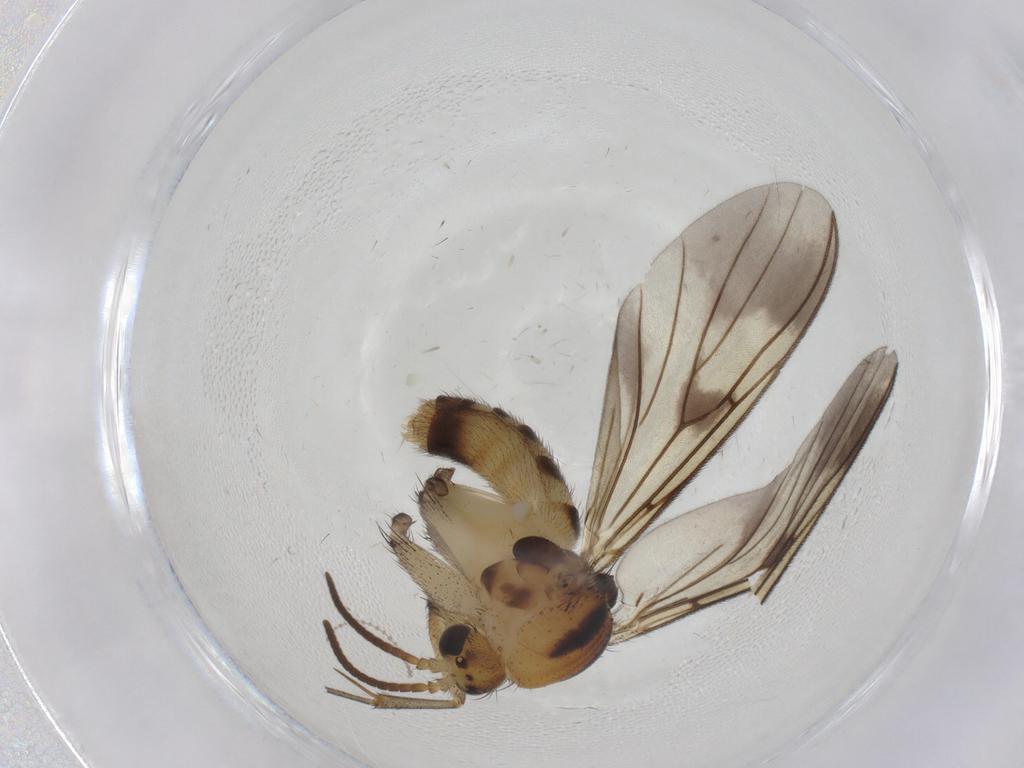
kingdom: Animalia
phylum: Arthropoda
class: Insecta
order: Diptera
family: Mycetophilidae
